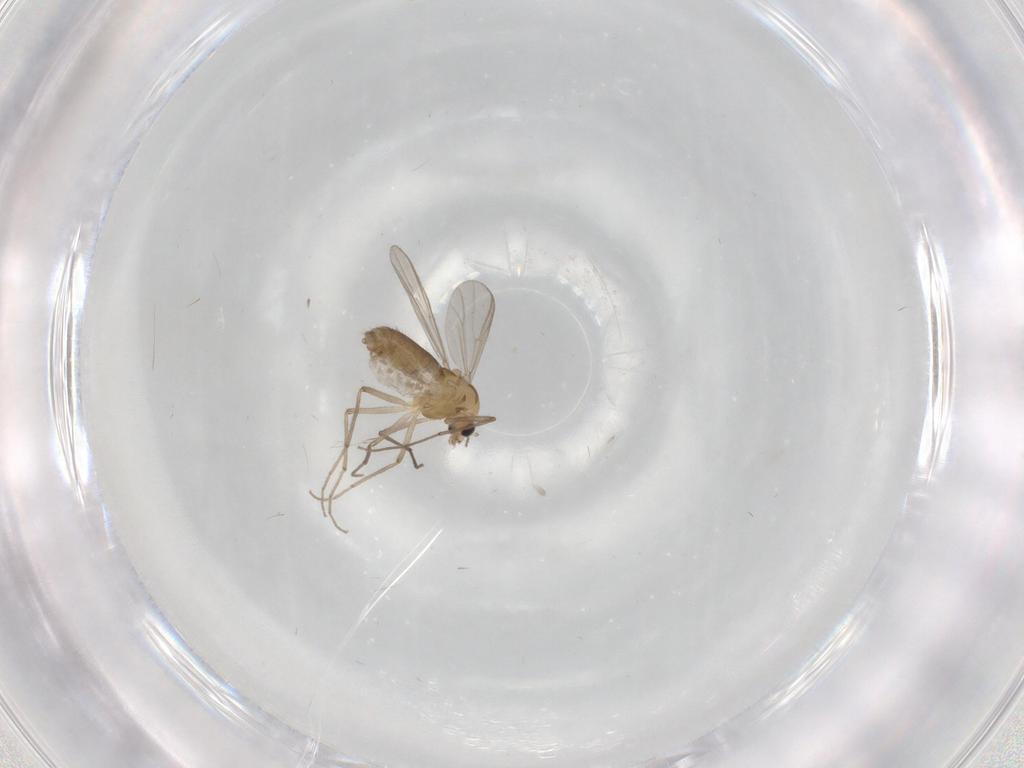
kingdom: Animalia
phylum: Arthropoda
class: Insecta
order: Diptera
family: Chironomidae
